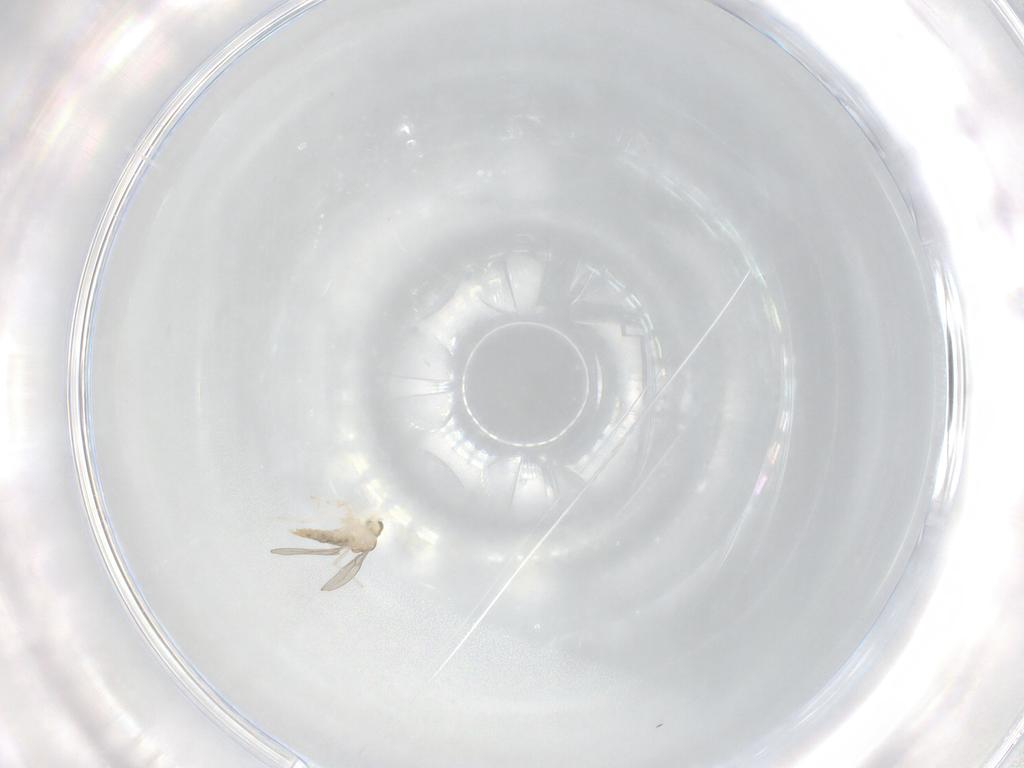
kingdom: Animalia
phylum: Arthropoda
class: Insecta
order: Diptera
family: Cecidomyiidae
